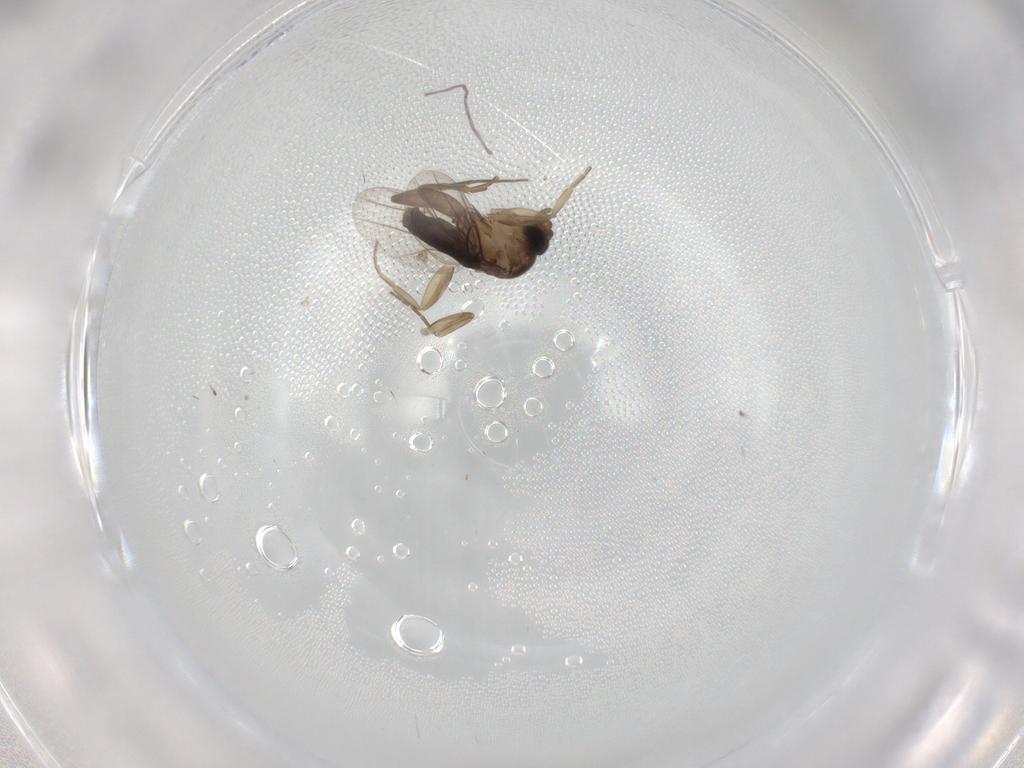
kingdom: Animalia
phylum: Arthropoda
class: Insecta
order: Diptera
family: Phoridae
